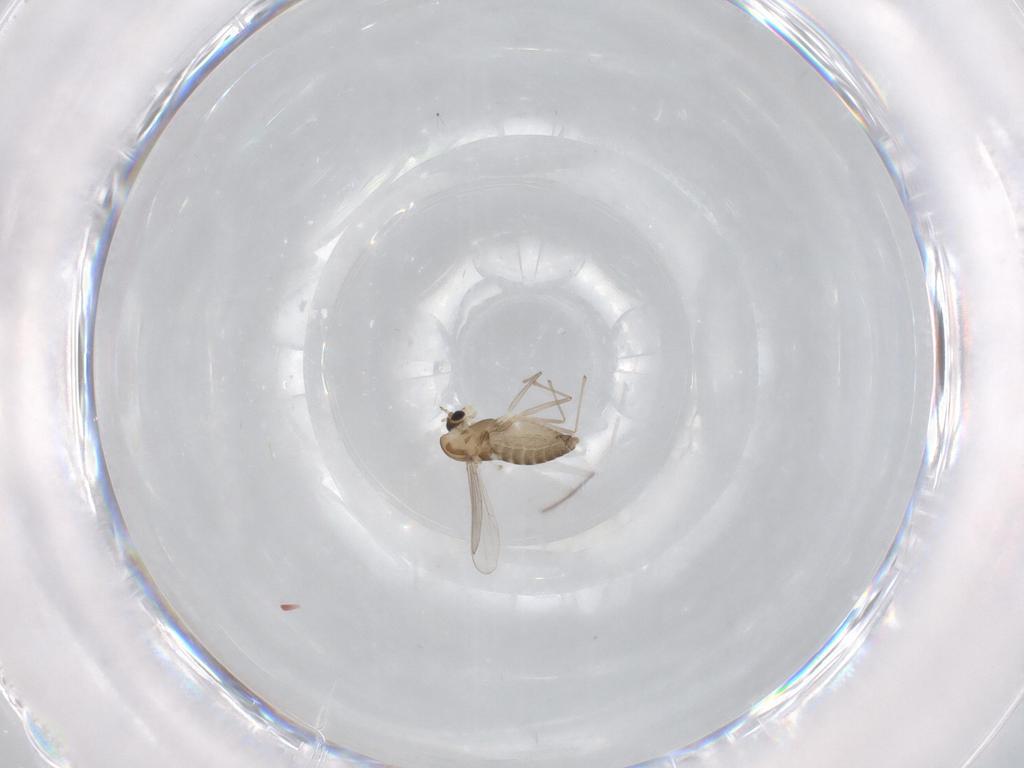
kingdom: Animalia
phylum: Arthropoda
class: Insecta
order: Diptera
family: Chironomidae
